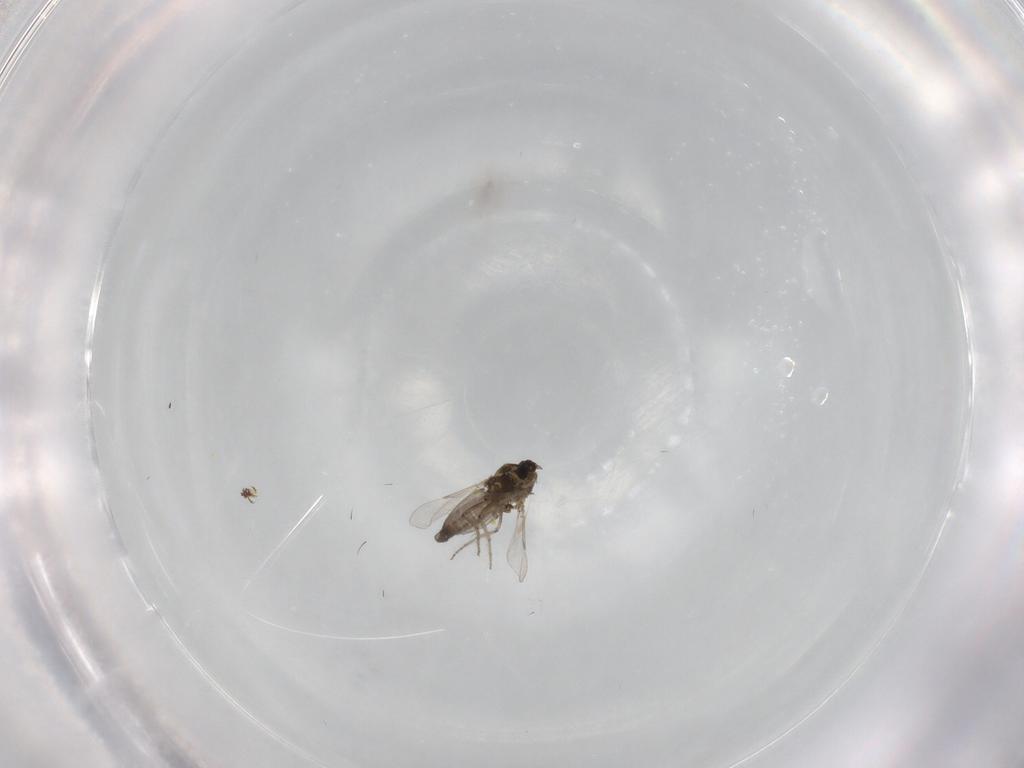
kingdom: Animalia
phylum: Arthropoda
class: Insecta
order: Diptera
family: Ceratopogonidae
